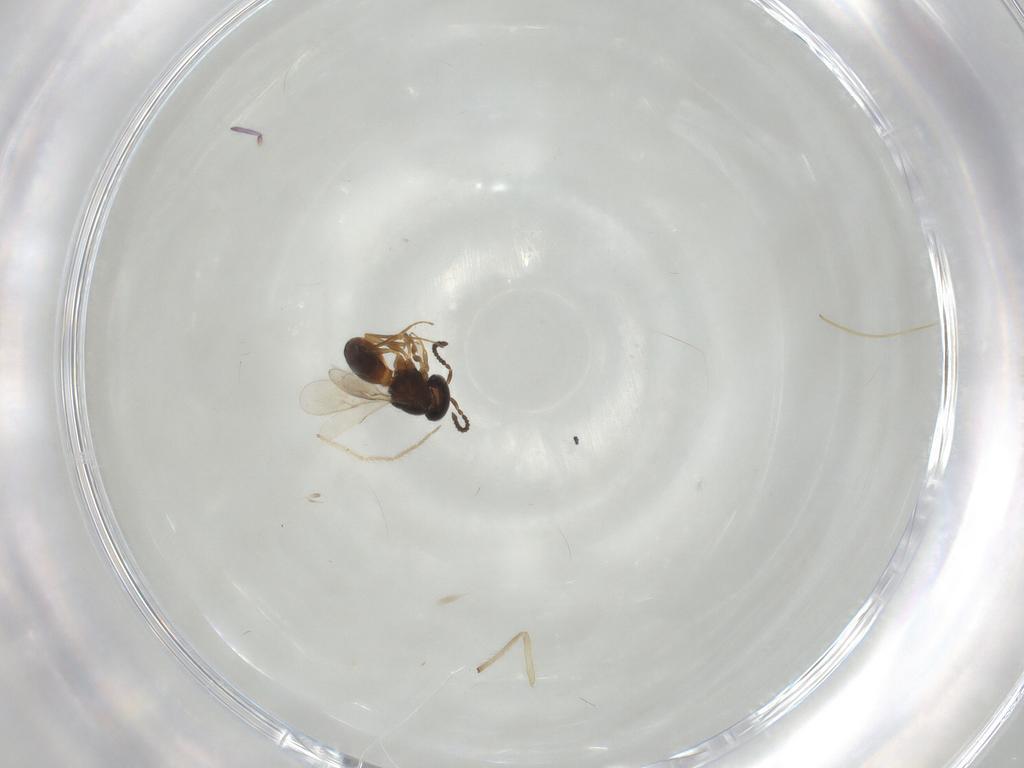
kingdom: Animalia
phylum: Arthropoda
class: Insecta
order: Hymenoptera
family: Scelionidae
